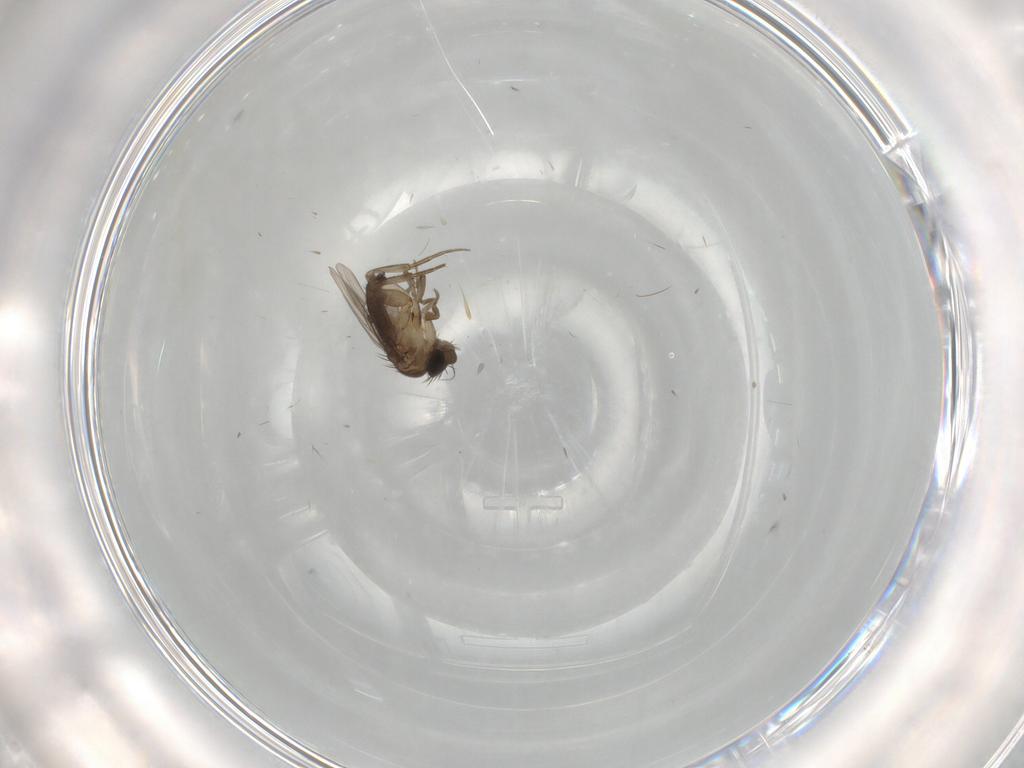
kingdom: Animalia
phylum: Arthropoda
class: Insecta
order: Diptera
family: Phoridae
